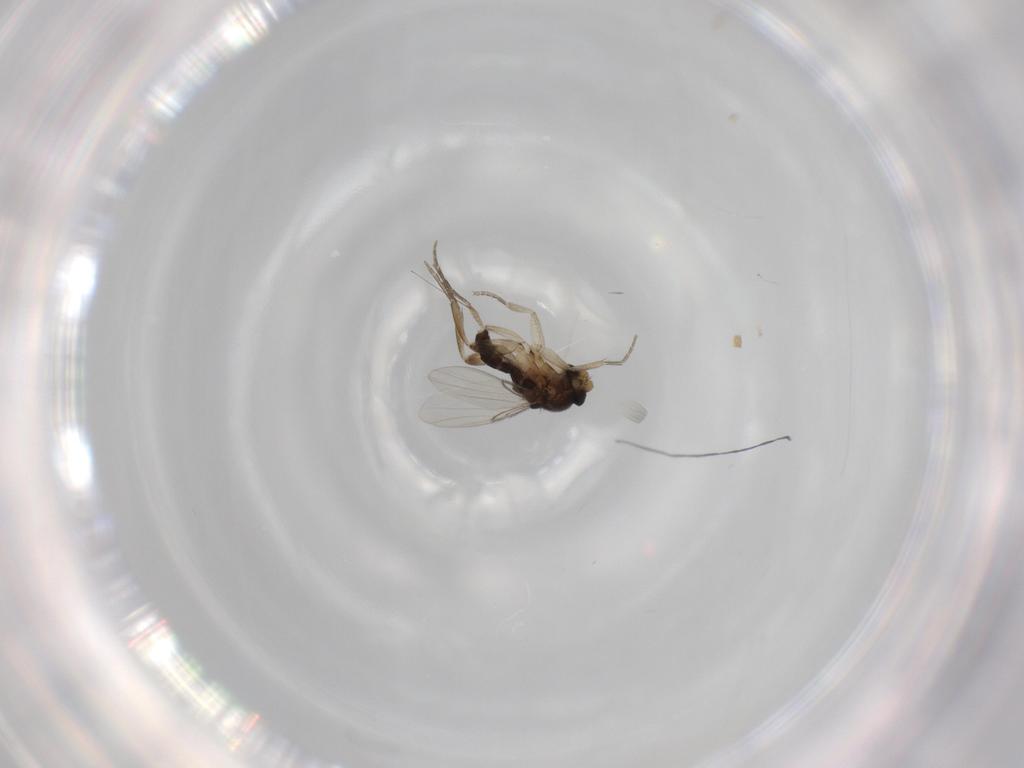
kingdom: Animalia
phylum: Arthropoda
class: Insecta
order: Diptera
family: Phoridae
